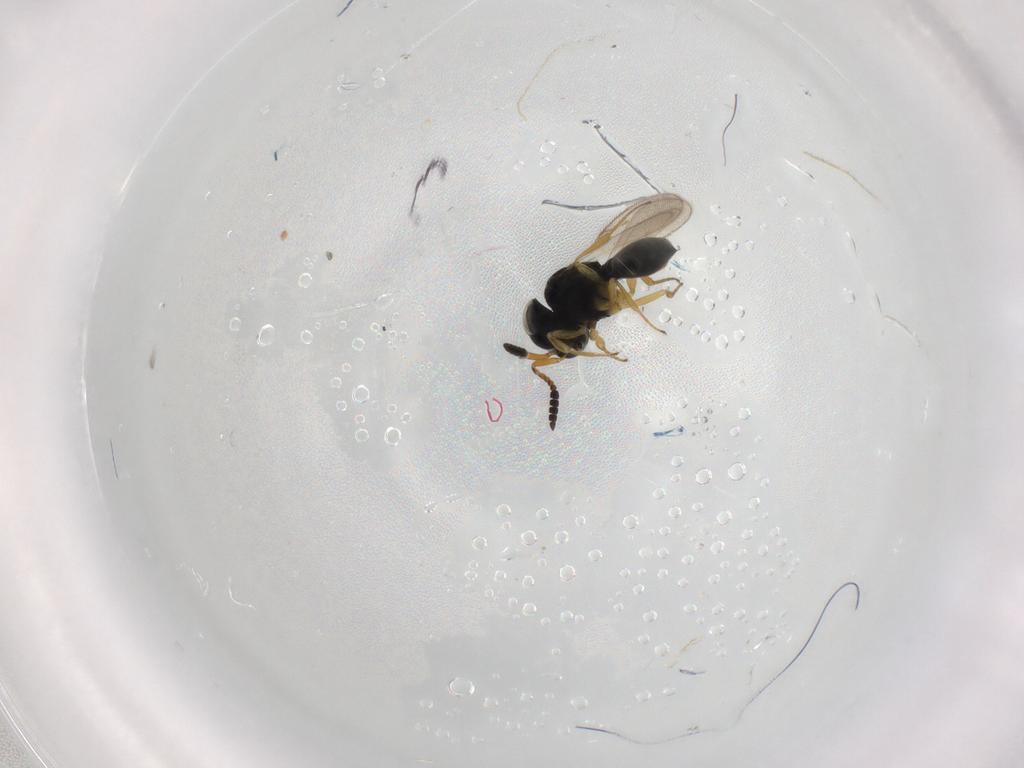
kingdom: Animalia
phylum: Arthropoda
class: Insecta
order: Hymenoptera
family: Scelionidae
